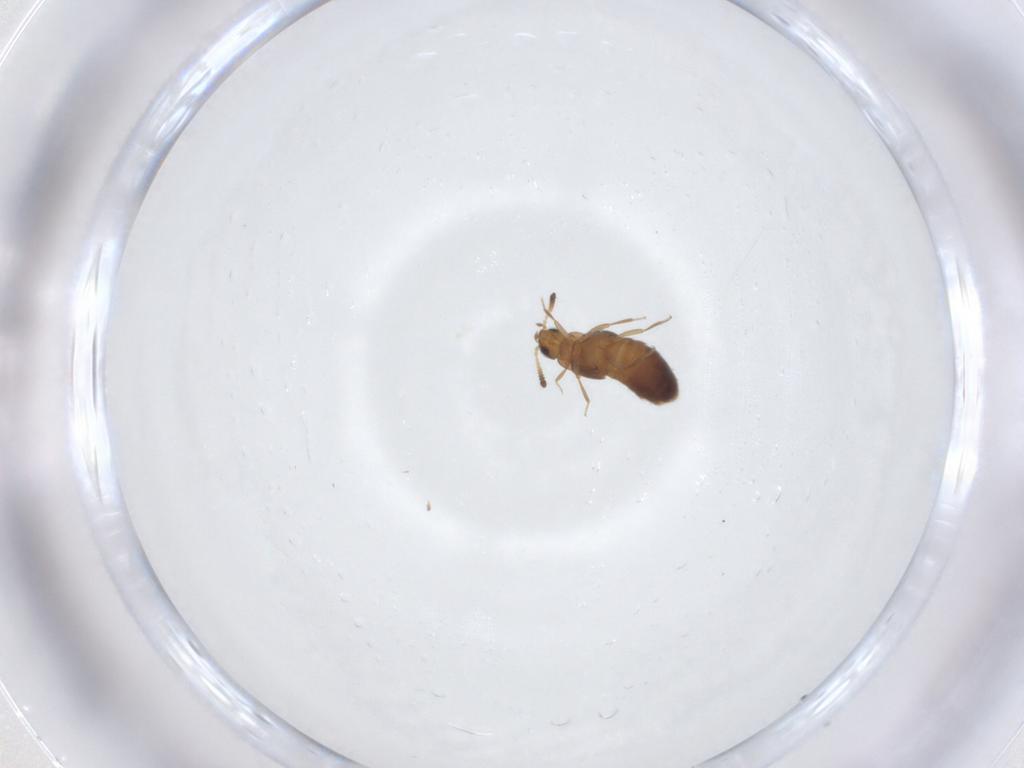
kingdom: Animalia
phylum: Arthropoda
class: Insecta
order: Coleoptera
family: Staphylinidae
